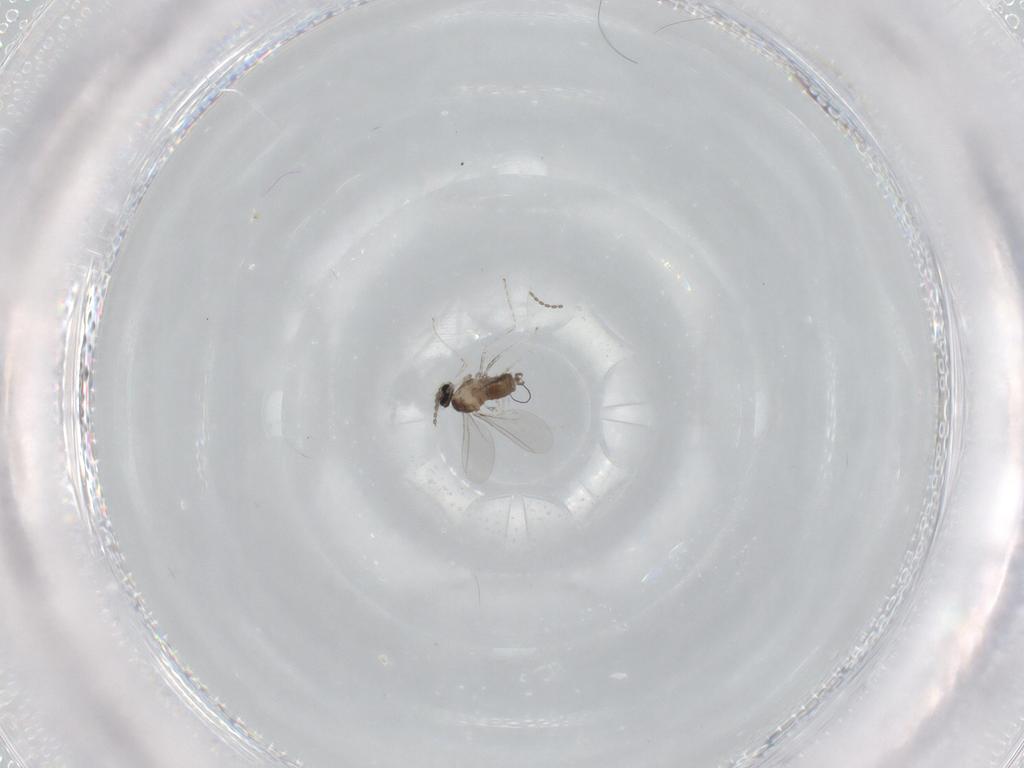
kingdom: Animalia
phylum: Arthropoda
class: Insecta
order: Diptera
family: Cecidomyiidae
